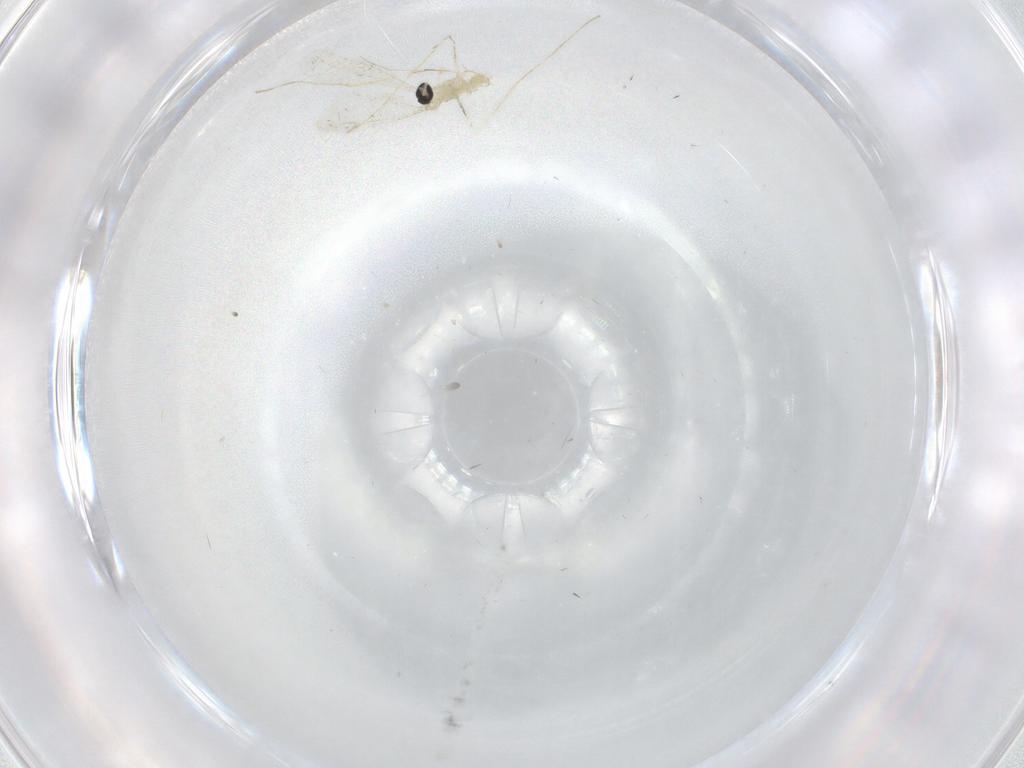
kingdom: Animalia
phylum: Arthropoda
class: Insecta
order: Diptera
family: Cecidomyiidae
